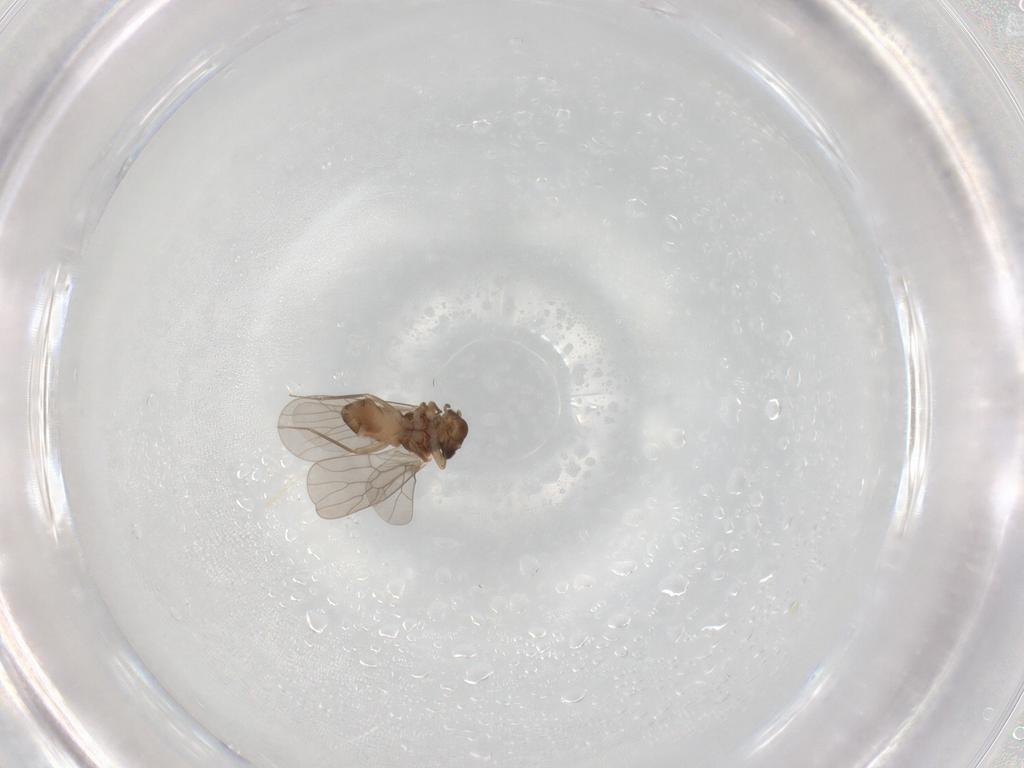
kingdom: Animalia
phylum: Arthropoda
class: Insecta
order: Psocodea
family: Lepidopsocidae
